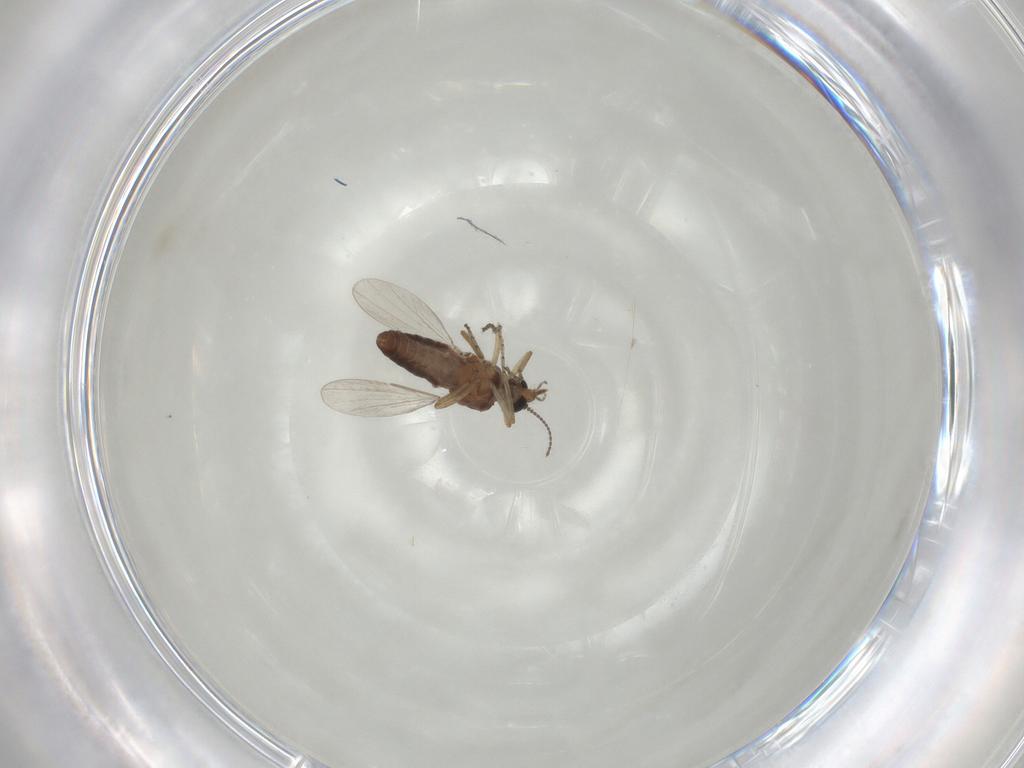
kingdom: Animalia
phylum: Arthropoda
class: Insecta
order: Diptera
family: Ceratopogonidae
